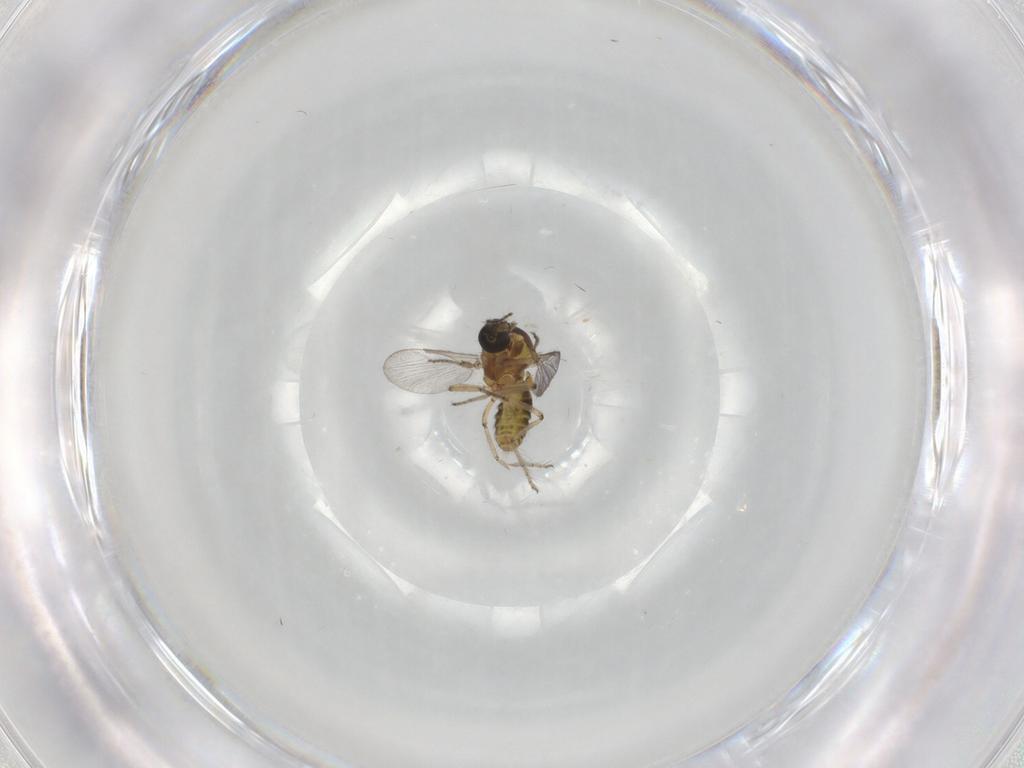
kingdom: Animalia
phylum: Arthropoda
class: Insecta
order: Diptera
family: Ceratopogonidae
